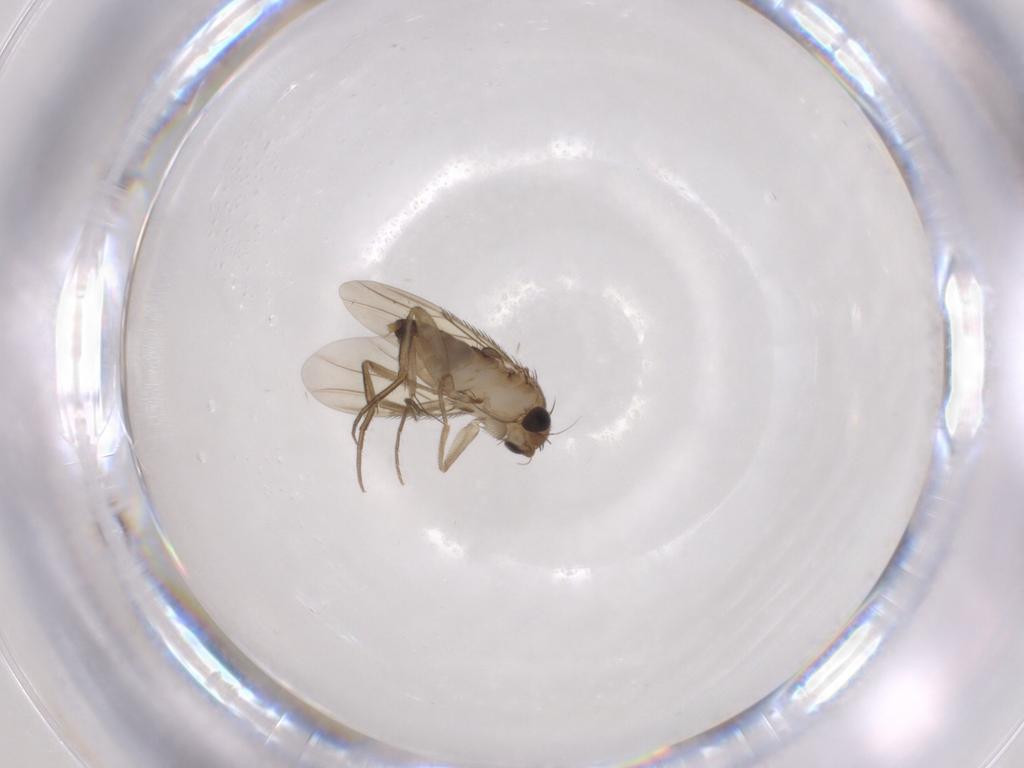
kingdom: Animalia
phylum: Arthropoda
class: Insecta
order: Diptera
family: Phoridae
